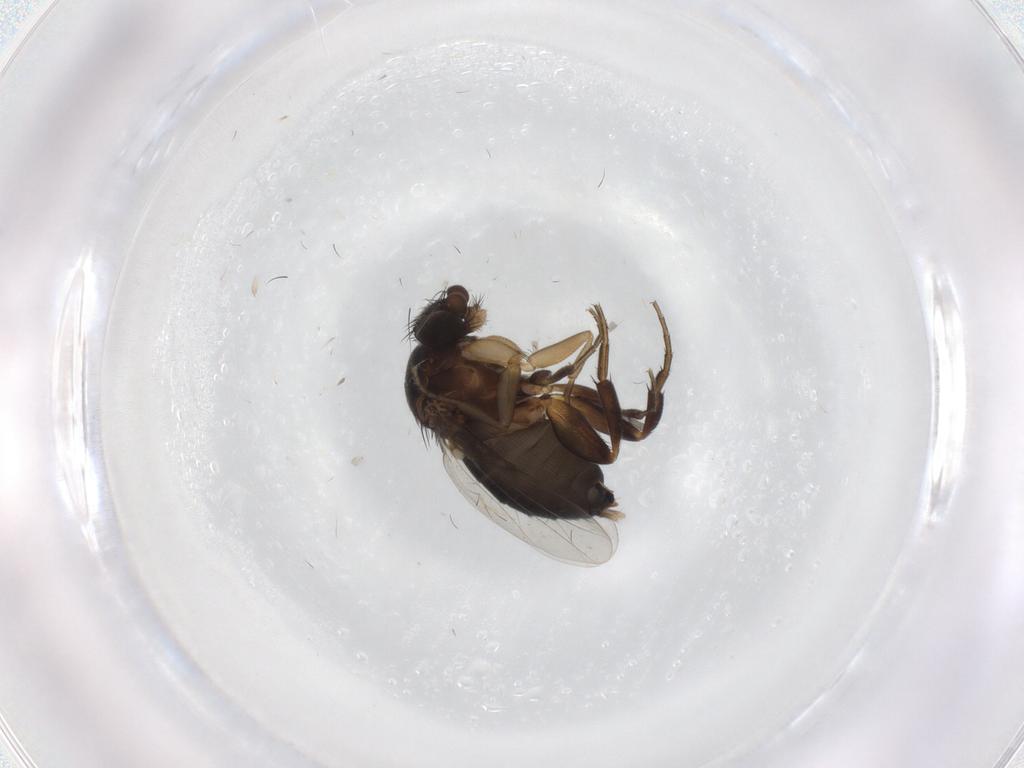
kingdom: Animalia
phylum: Arthropoda
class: Insecta
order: Diptera
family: Phoridae
